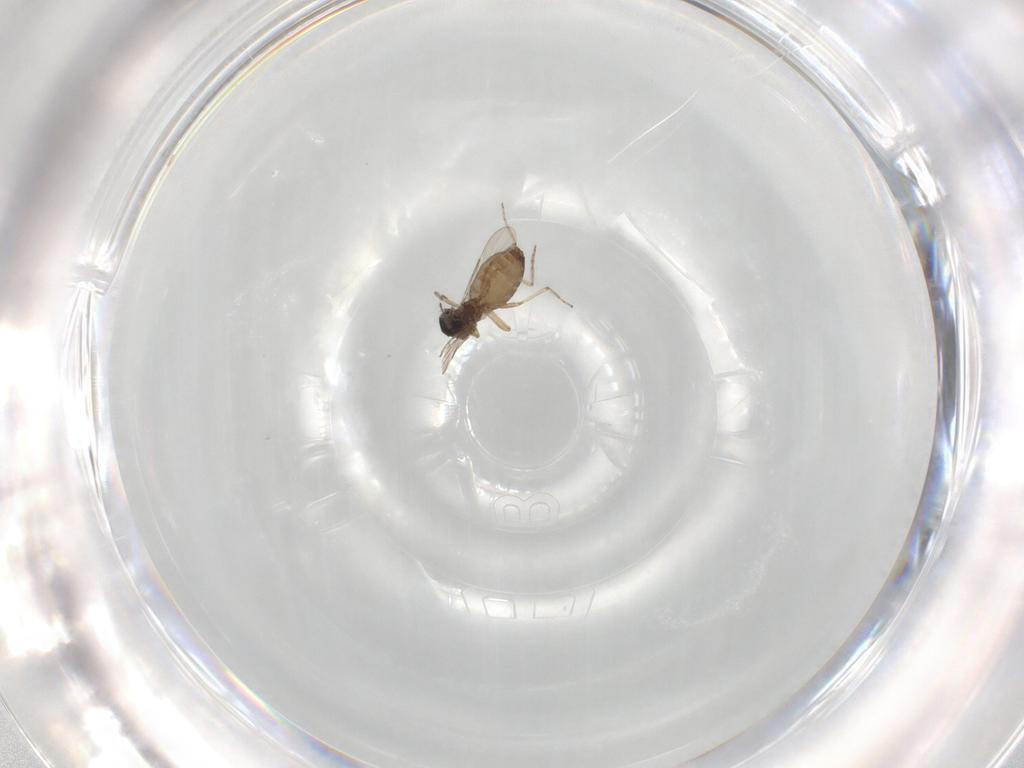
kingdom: Animalia
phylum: Arthropoda
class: Insecta
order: Diptera
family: Ceratopogonidae
